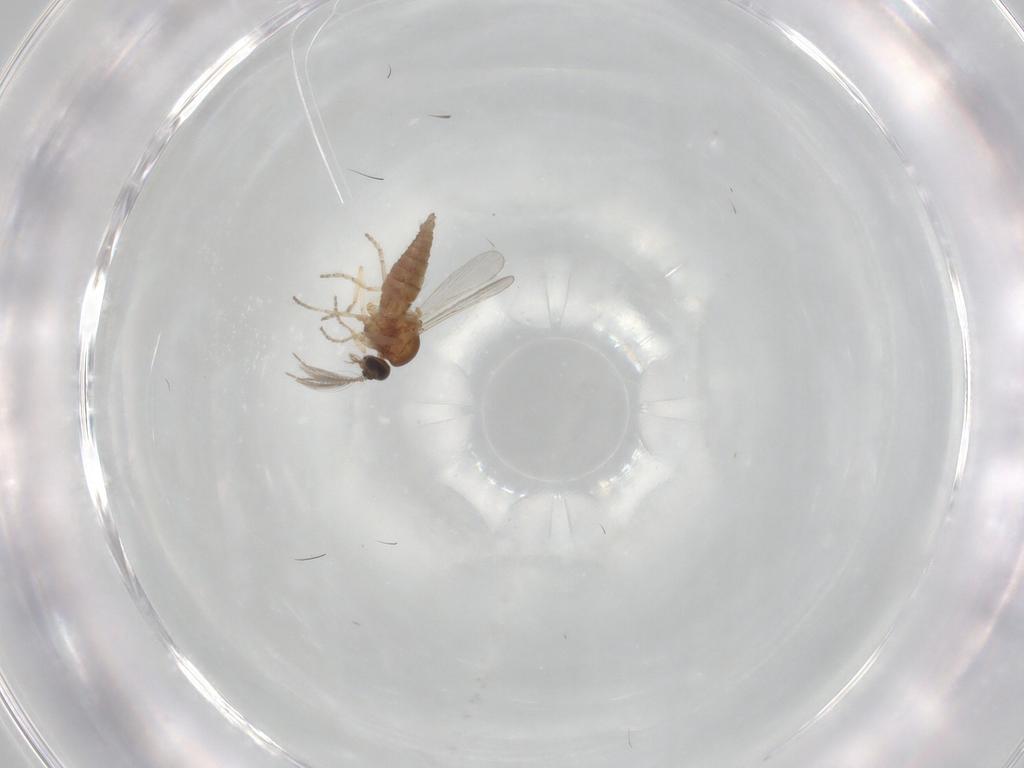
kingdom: Animalia
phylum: Arthropoda
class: Insecta
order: Diptera
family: Ceratopogonidae
